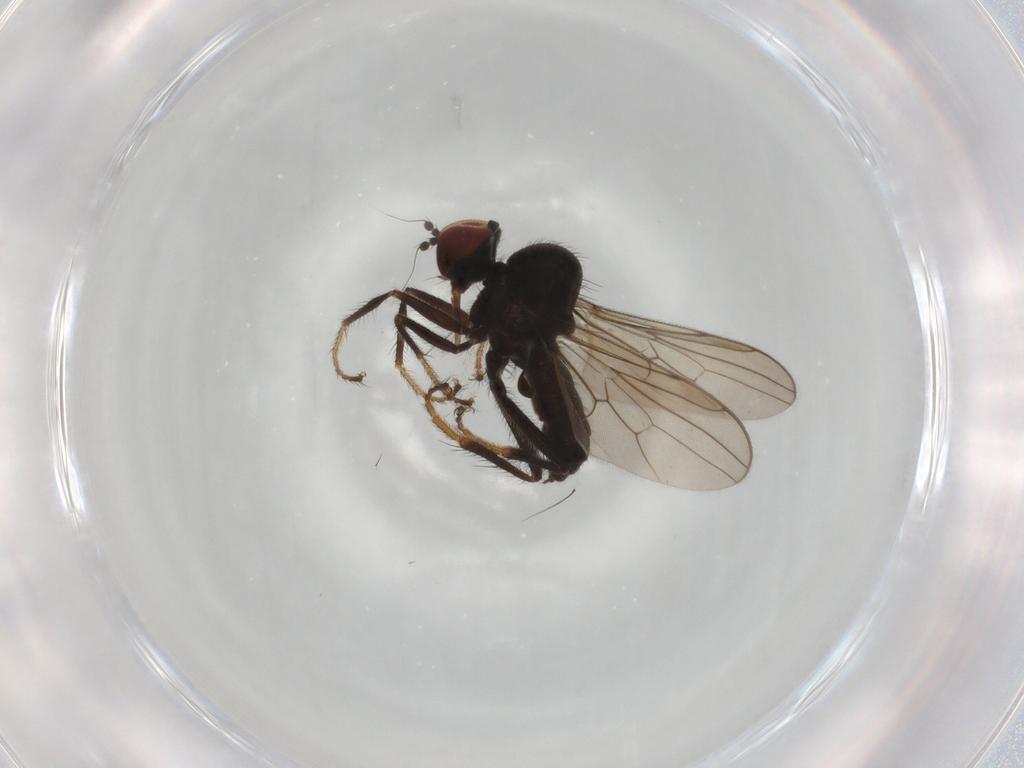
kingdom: Animalia
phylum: Arthropoda
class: Insecta
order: Diptera
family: Hybotidae
